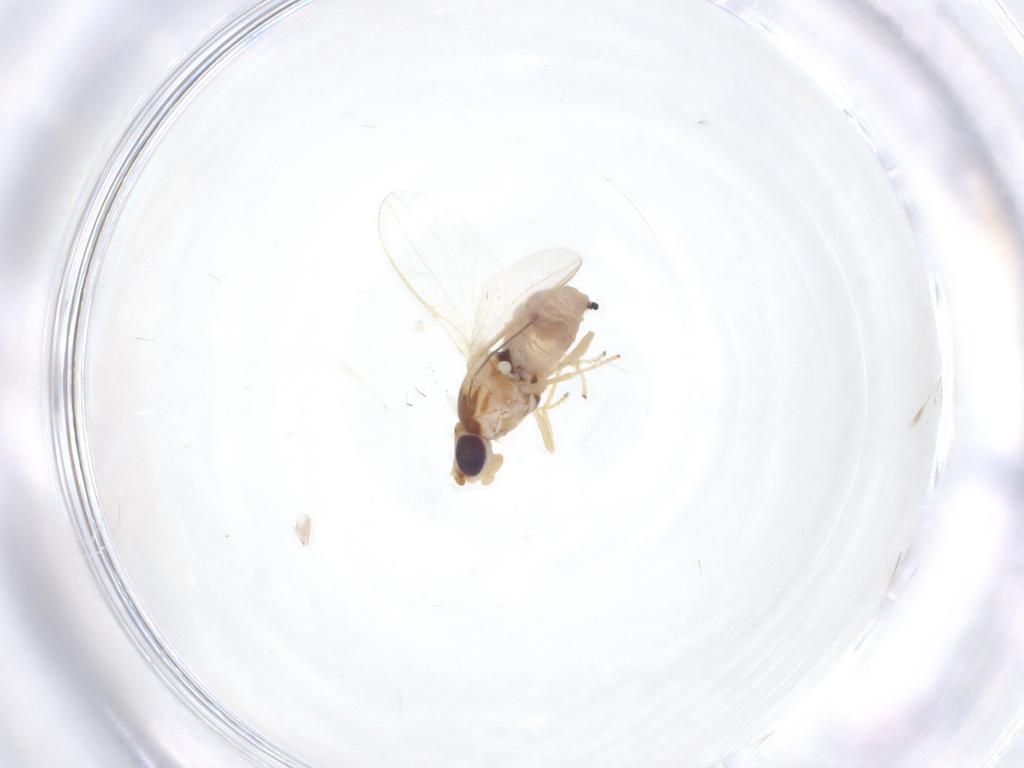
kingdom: Animalia
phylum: Arthropoda
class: Insecta
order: Diptera
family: Chloropidae
